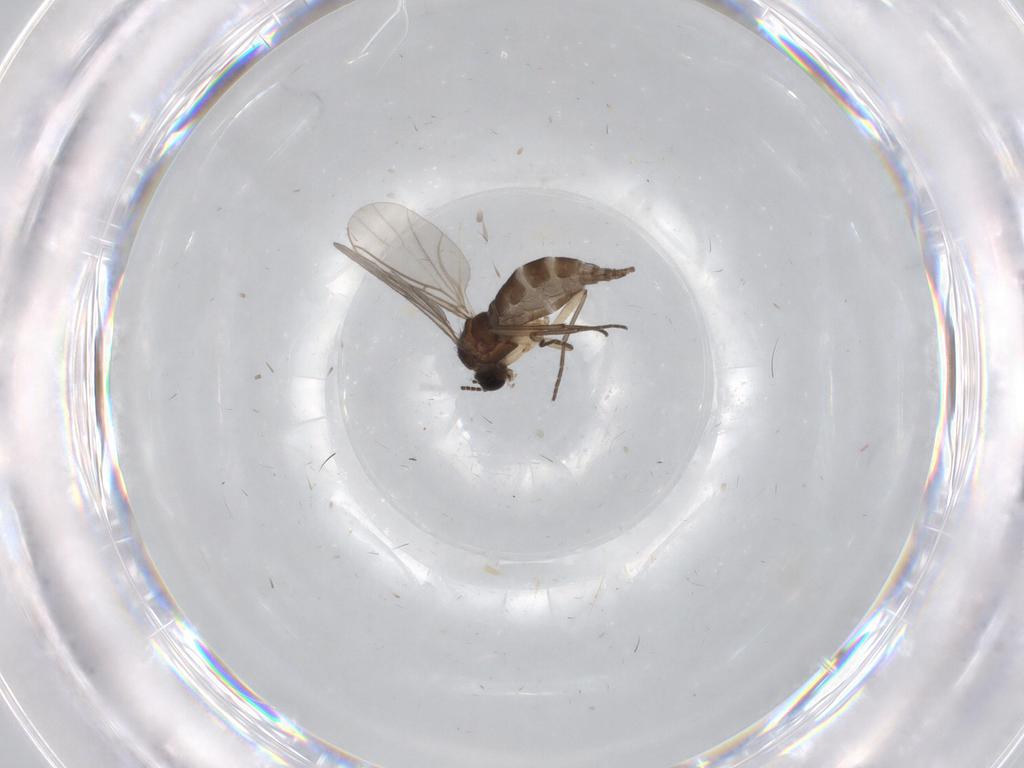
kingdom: Animalia
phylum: Arthropoda
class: Insecta
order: Diptera
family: Sciaridae
